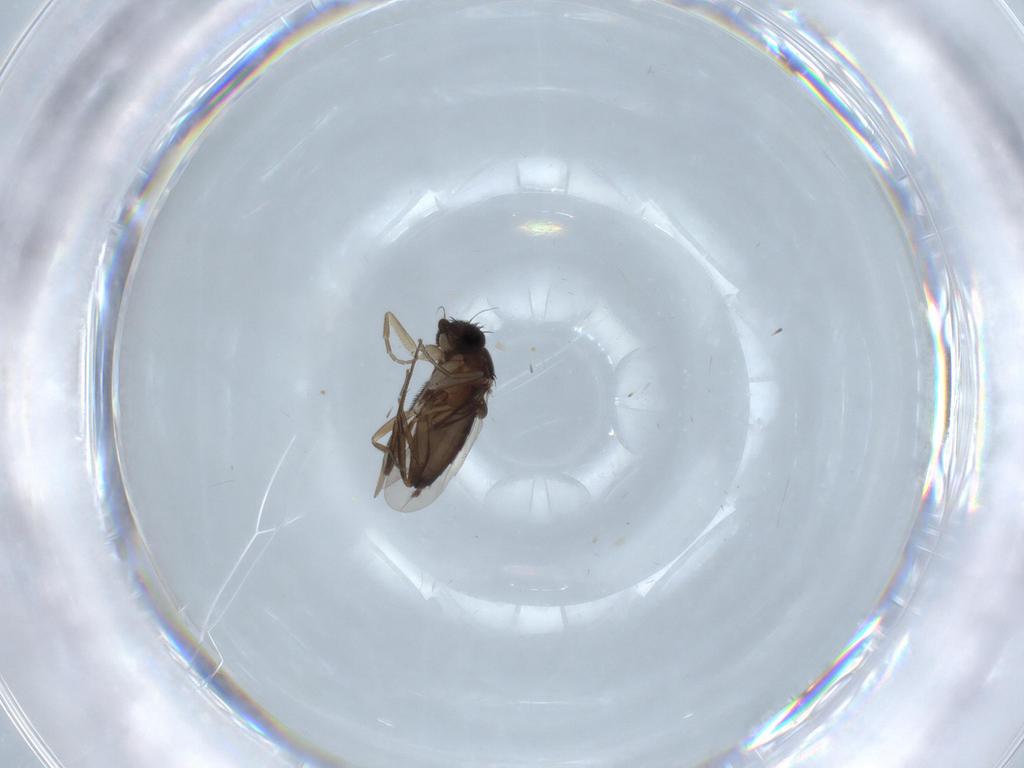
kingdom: Animalia
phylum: Arthropoda
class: Insecta
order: Diptera
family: Phoridae
